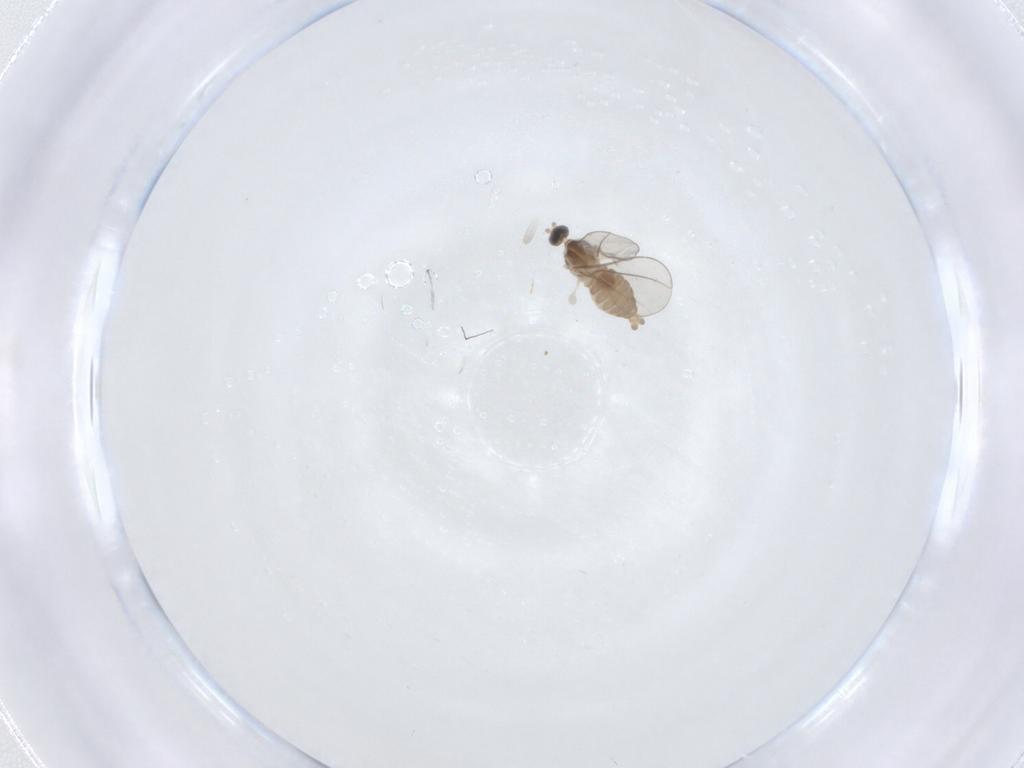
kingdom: Animalia
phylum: Arthropoda
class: Insecta
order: Diptera
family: Cecidomyiidae
